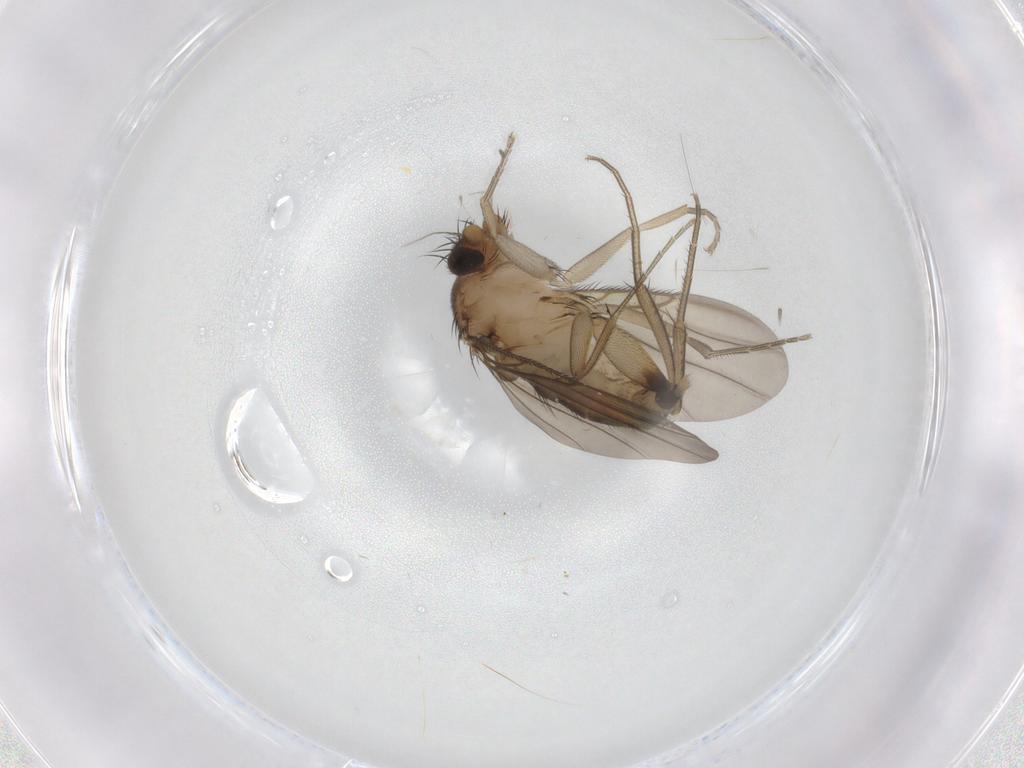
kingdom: Animalia
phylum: Arthropoda
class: Insecta
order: Diptera
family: Phoridae
